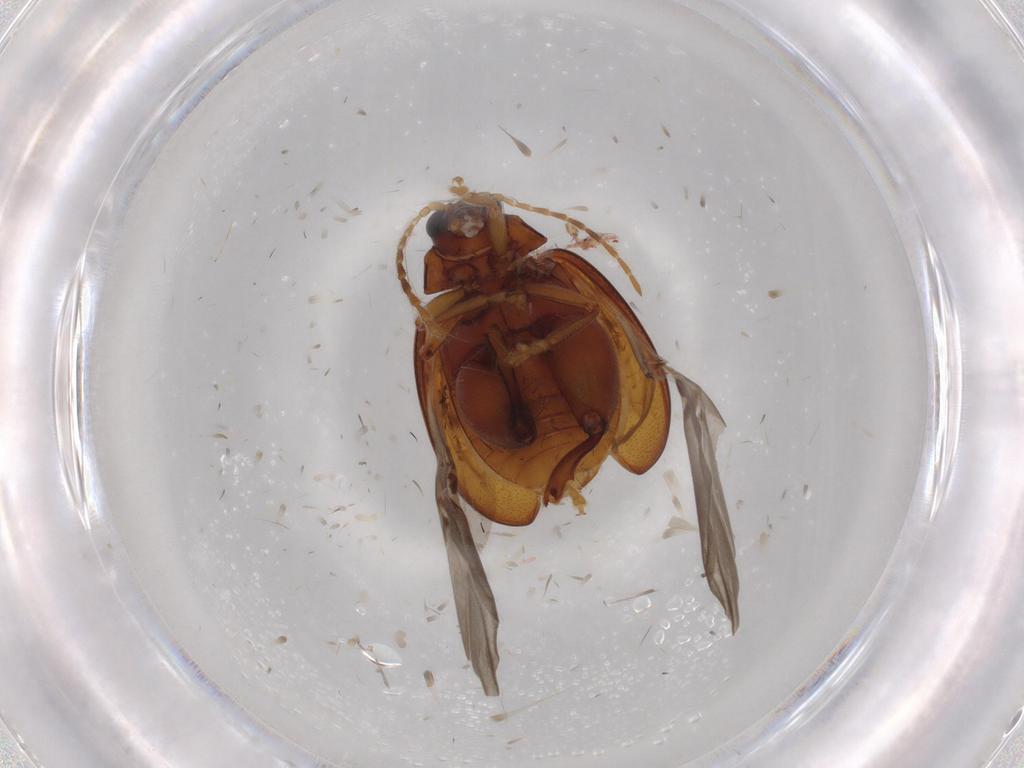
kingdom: Animalia
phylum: Arthropoda
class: Insecta
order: Coleoptera
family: Chrysomelidae
